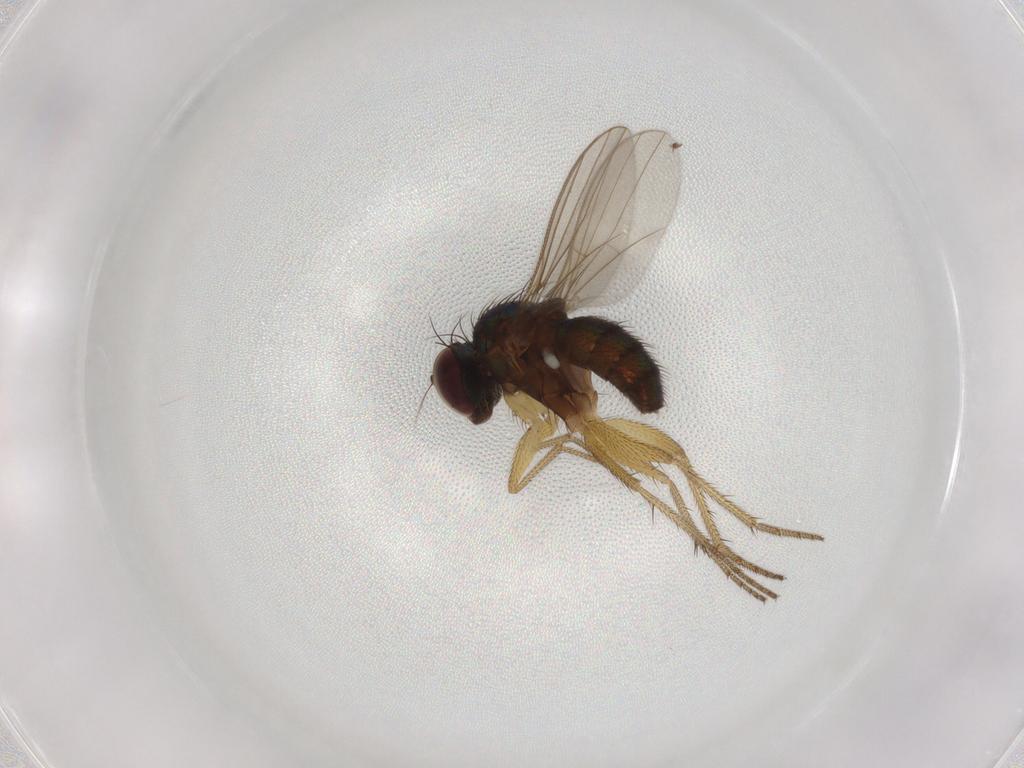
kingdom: Animalia
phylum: Arthropoda
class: Insecta
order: Diptera
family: Dolichopodidae
